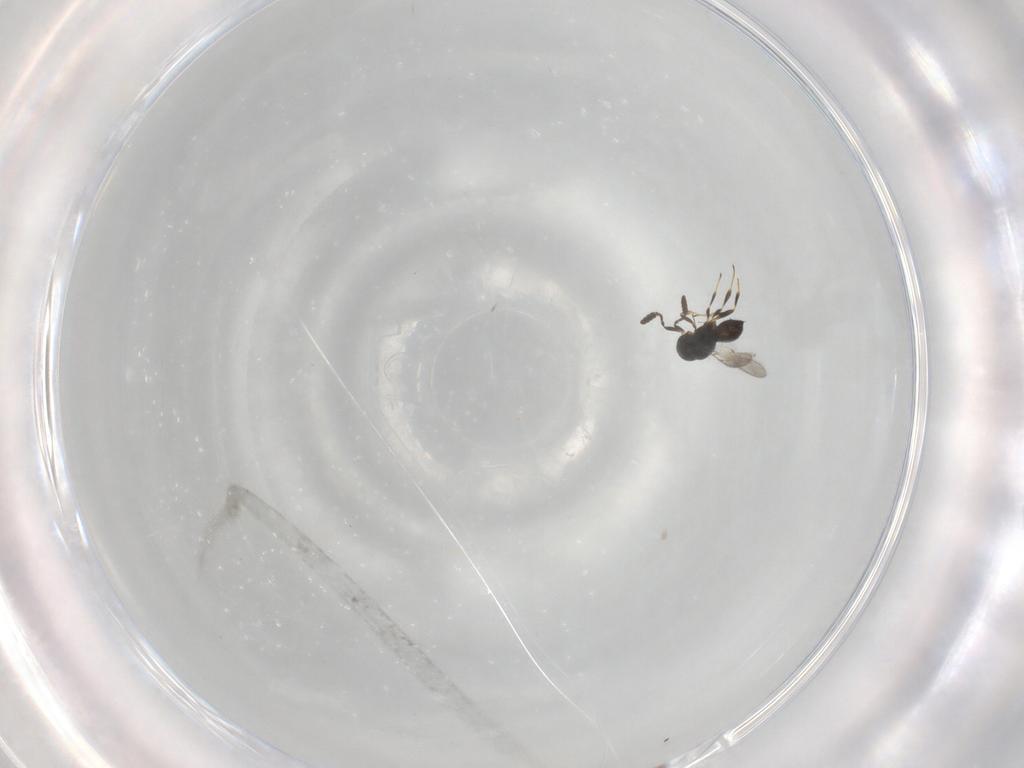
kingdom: Animalia
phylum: Arthropoda
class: Insecta
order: Hymenoptera
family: Scelionidae
